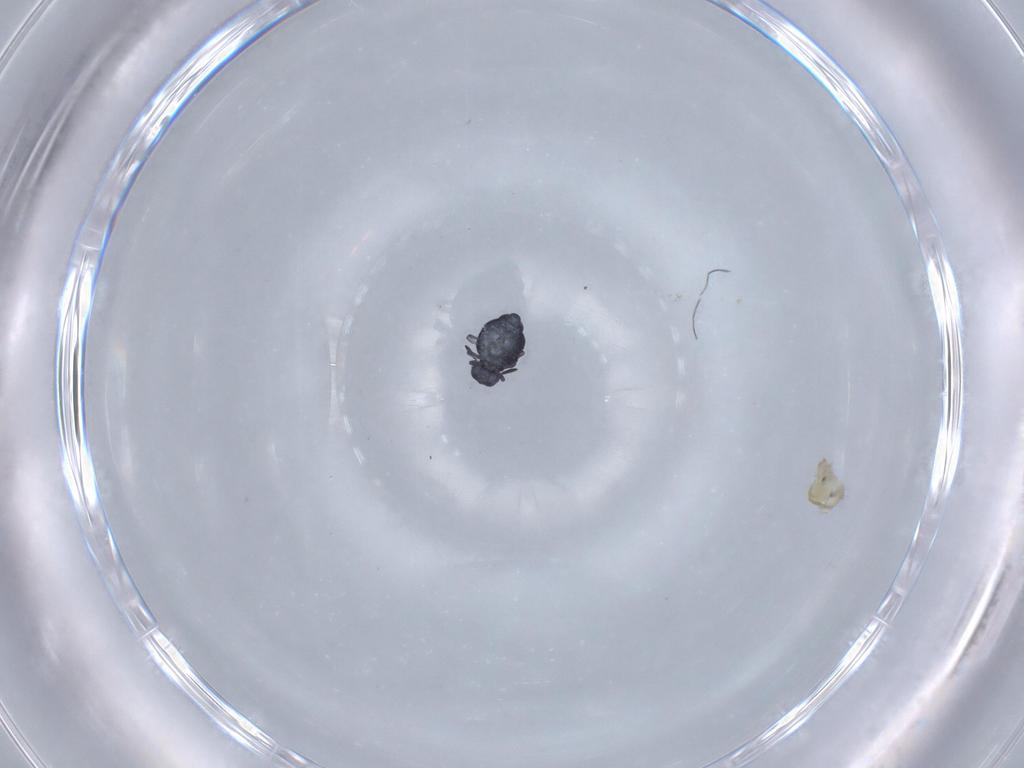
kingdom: Animalia
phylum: Arthropoda
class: Collembola
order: Symphypleona
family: Katiannidae
